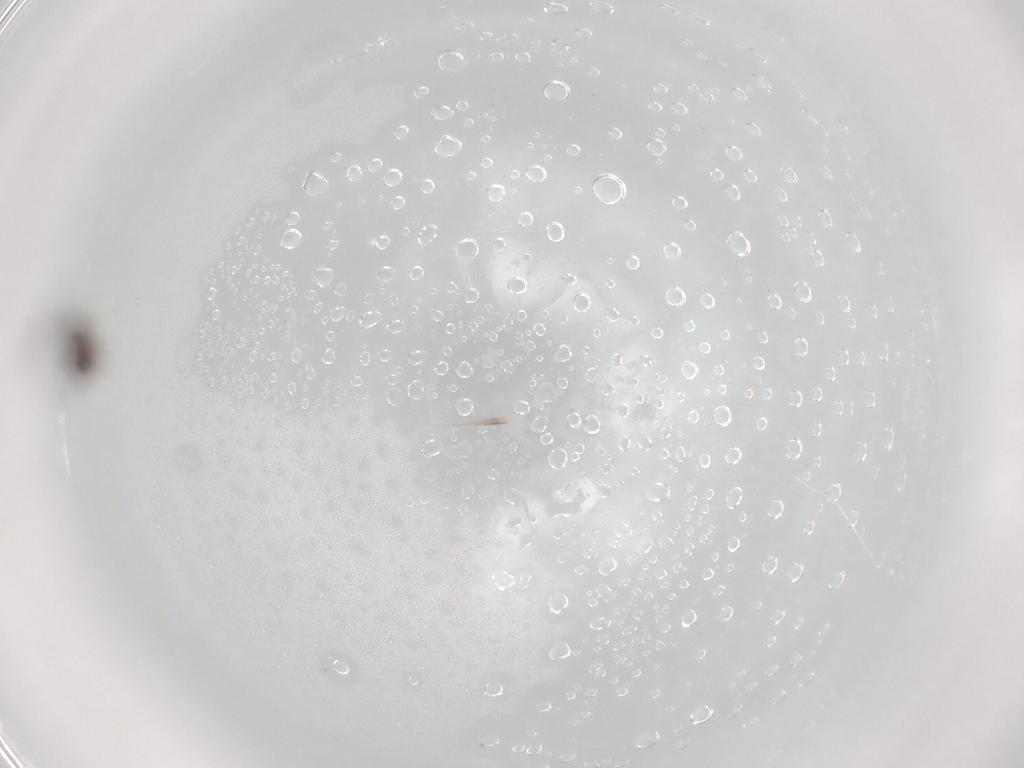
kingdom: Animalia
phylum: Arthropoda
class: Insecta
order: Diptera
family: Cecidomyiidae
